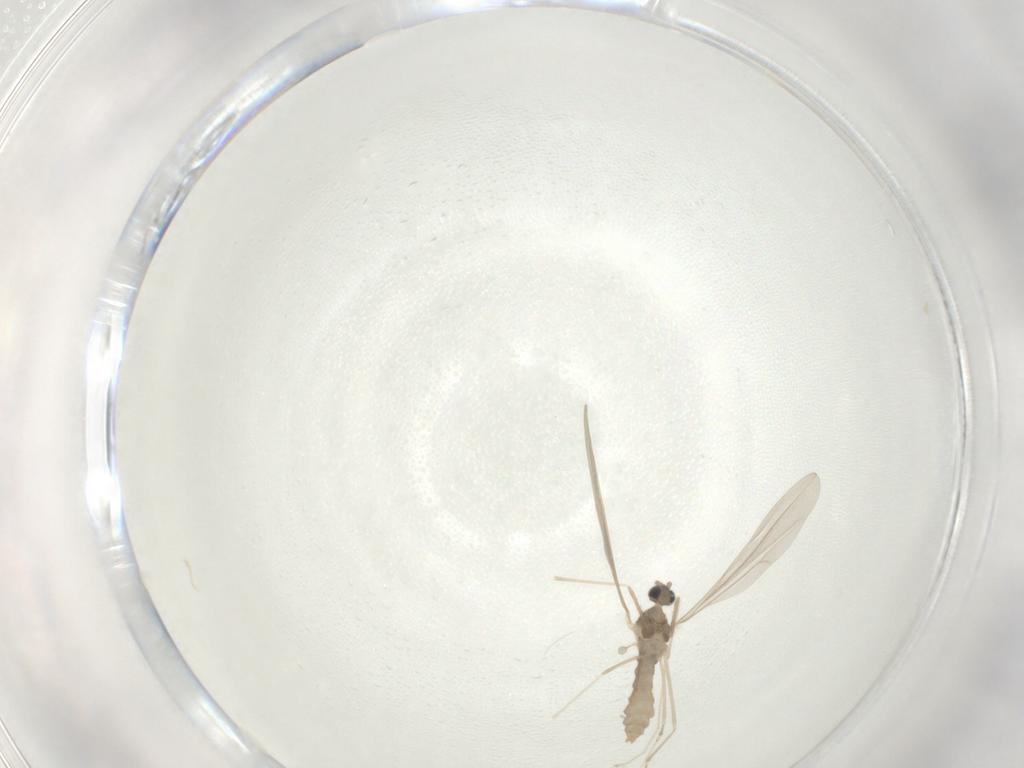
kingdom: Animalia
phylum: Arthropoda
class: Insecta
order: Diptera
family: Cecidomyiidae
